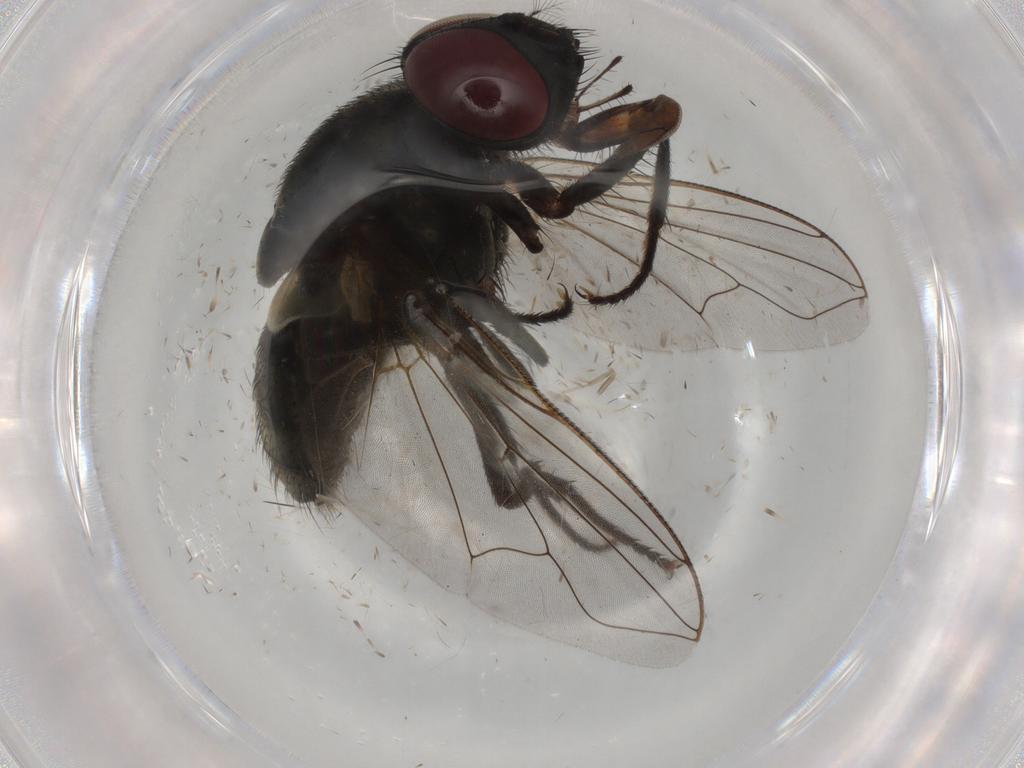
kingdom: Animalia
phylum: Arthropoda
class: Insecta
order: Diptera
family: Muscidae
